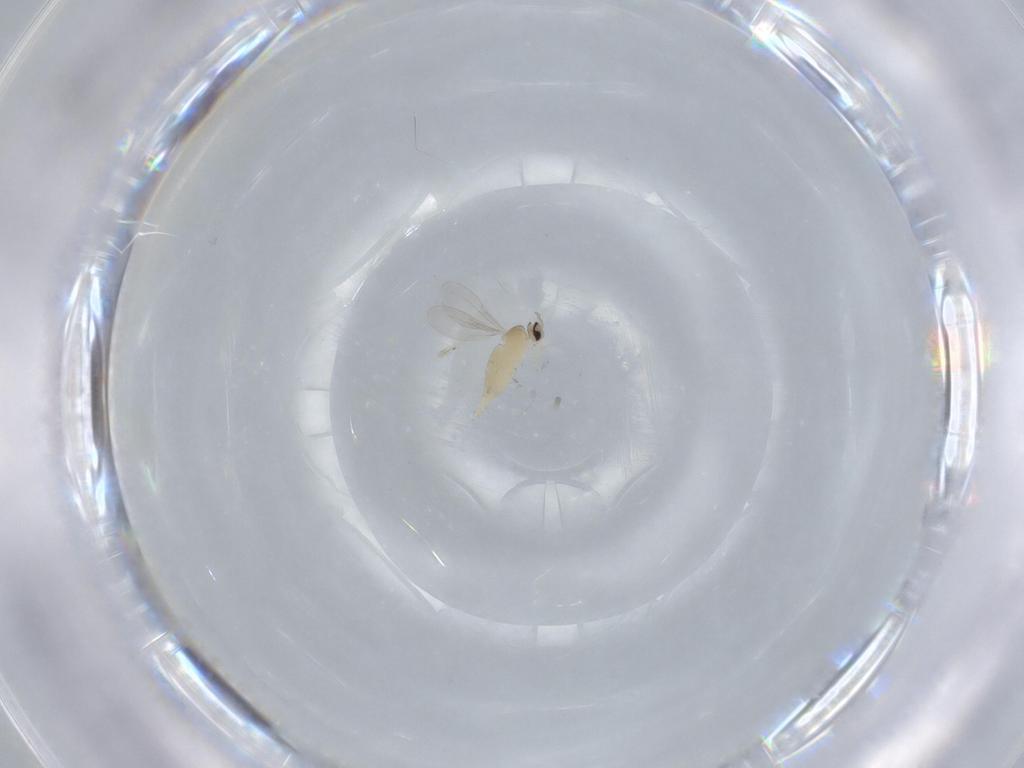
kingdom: Animalia
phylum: Arthropoda
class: Insecta
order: Diptera
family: Cecidomyiidae
